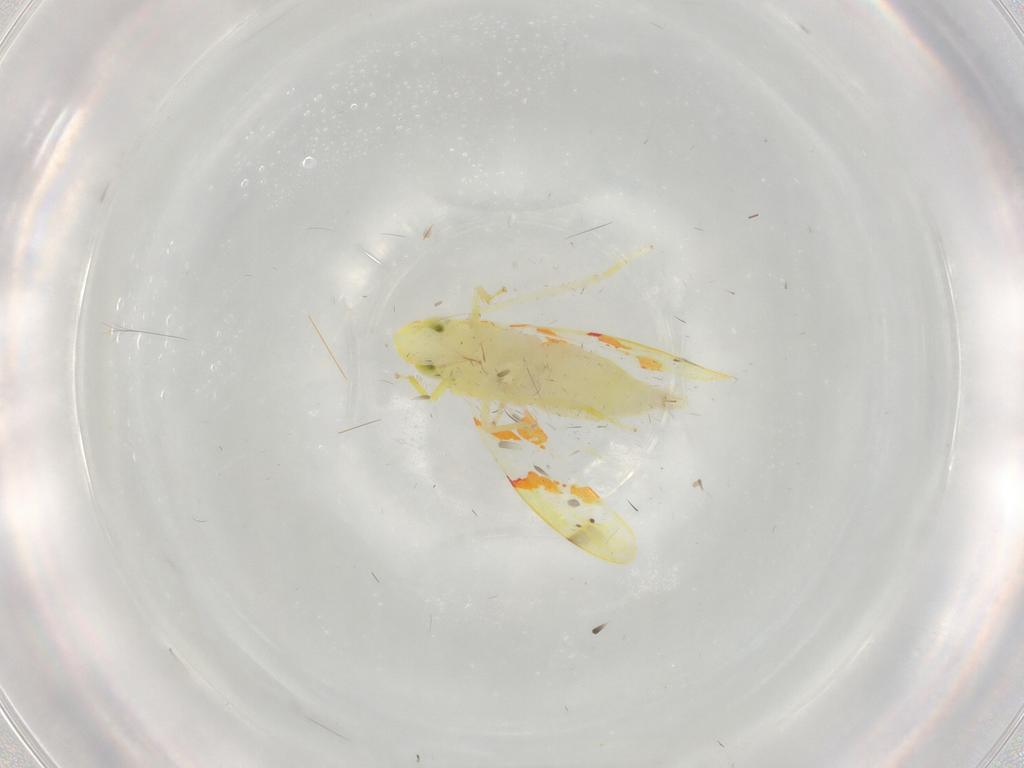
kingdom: Animalia
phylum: Arthropoda
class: Insecta
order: Hemiptera
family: Cicadellidae
